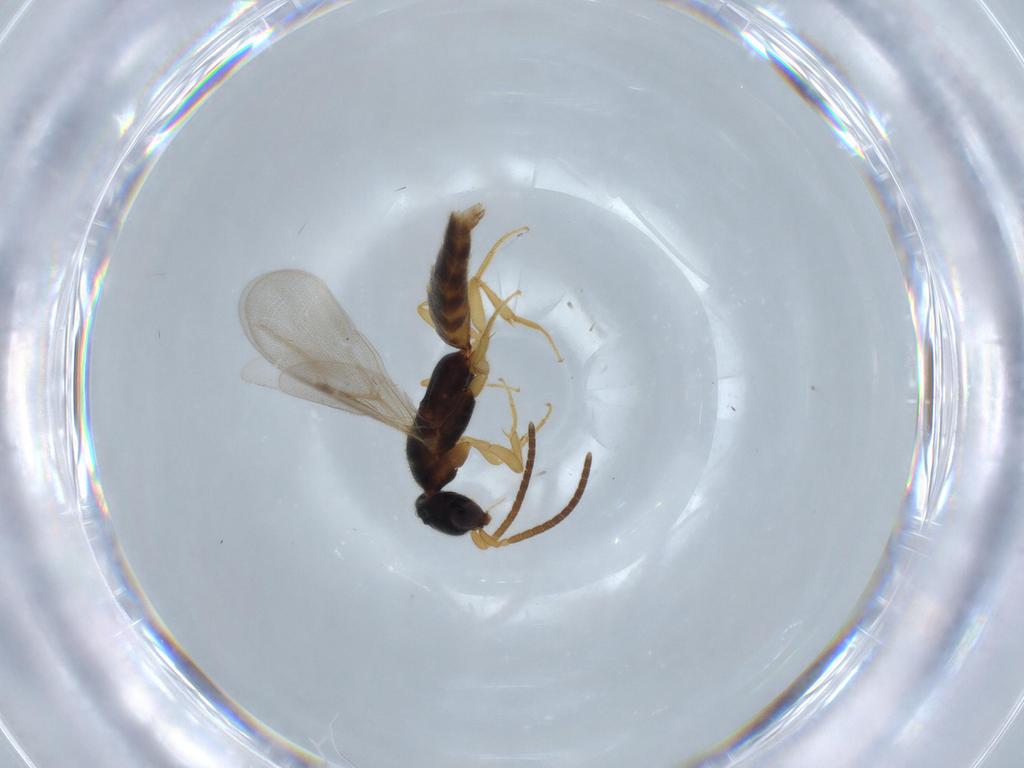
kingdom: Animalia
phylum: Arthropoda
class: Insecta
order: Hymenoptera
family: Bethylidae
